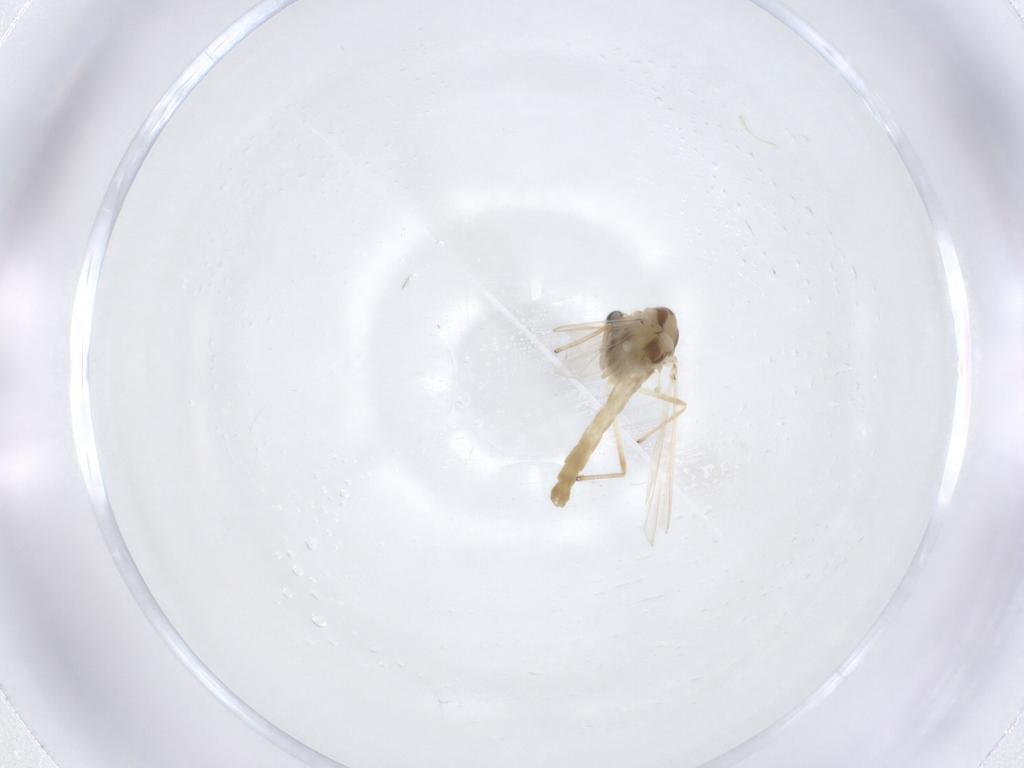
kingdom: Animalia
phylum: Arthropoda
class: Insecta
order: Diptera
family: Chironomidae
